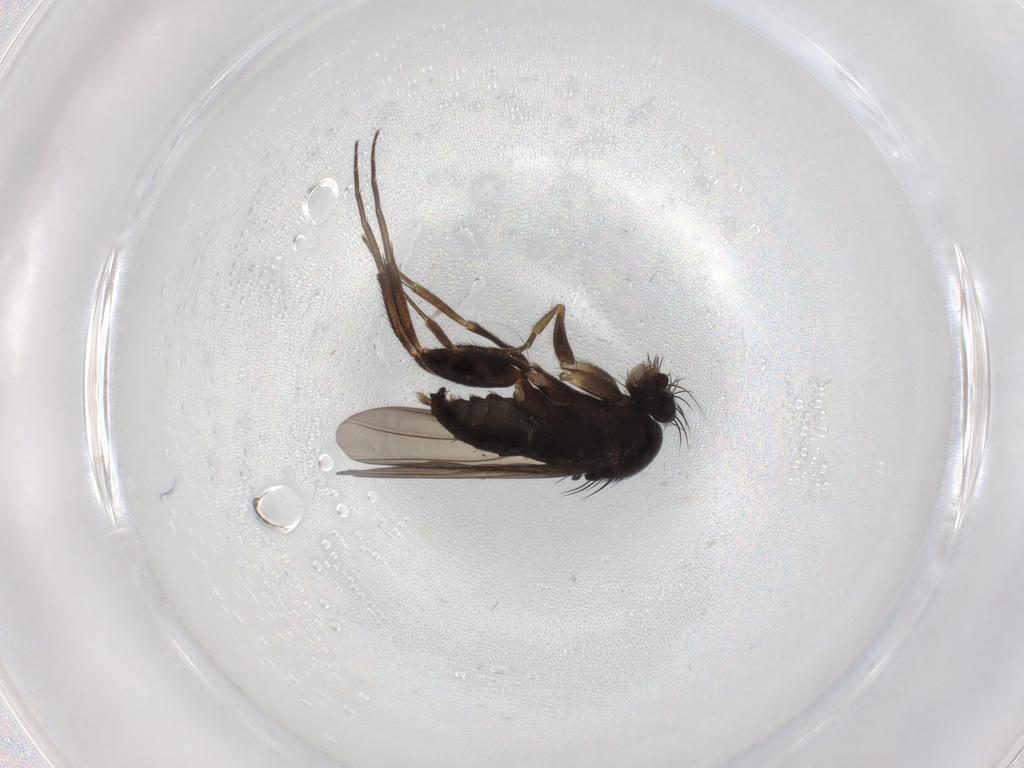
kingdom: Animalia
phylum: Arthropoda
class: Insecta
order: Diptera
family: Phoridae
